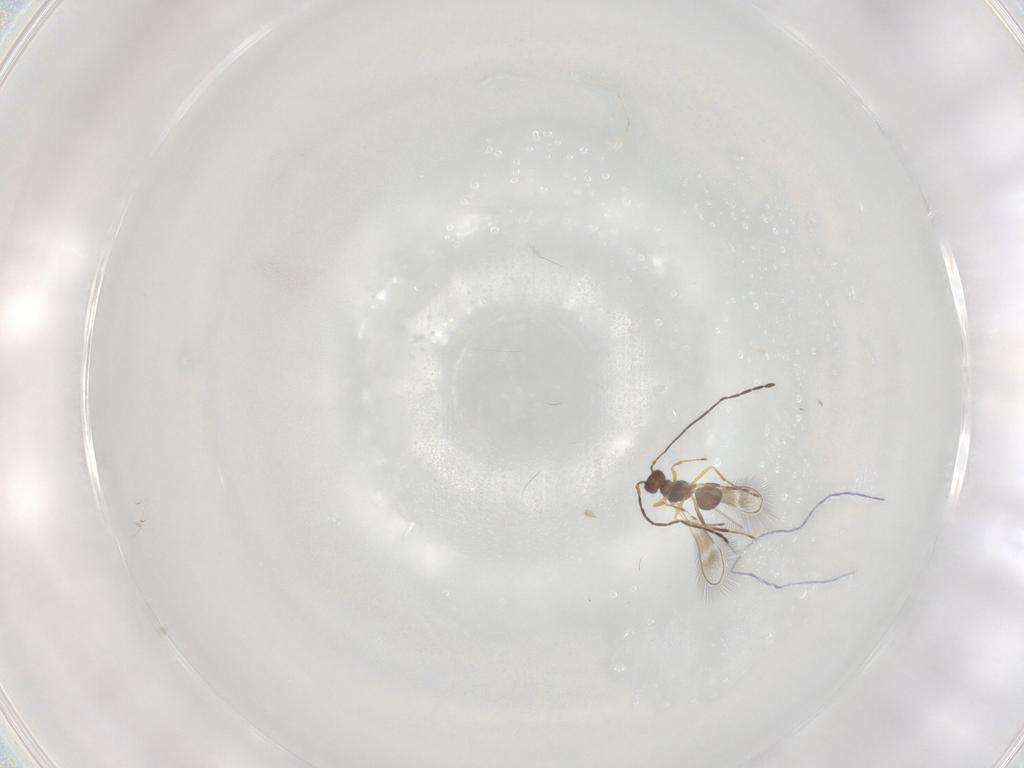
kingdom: Animalia
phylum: Arthropoda
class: Insecta
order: Hymenoptera
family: Mymaridae
